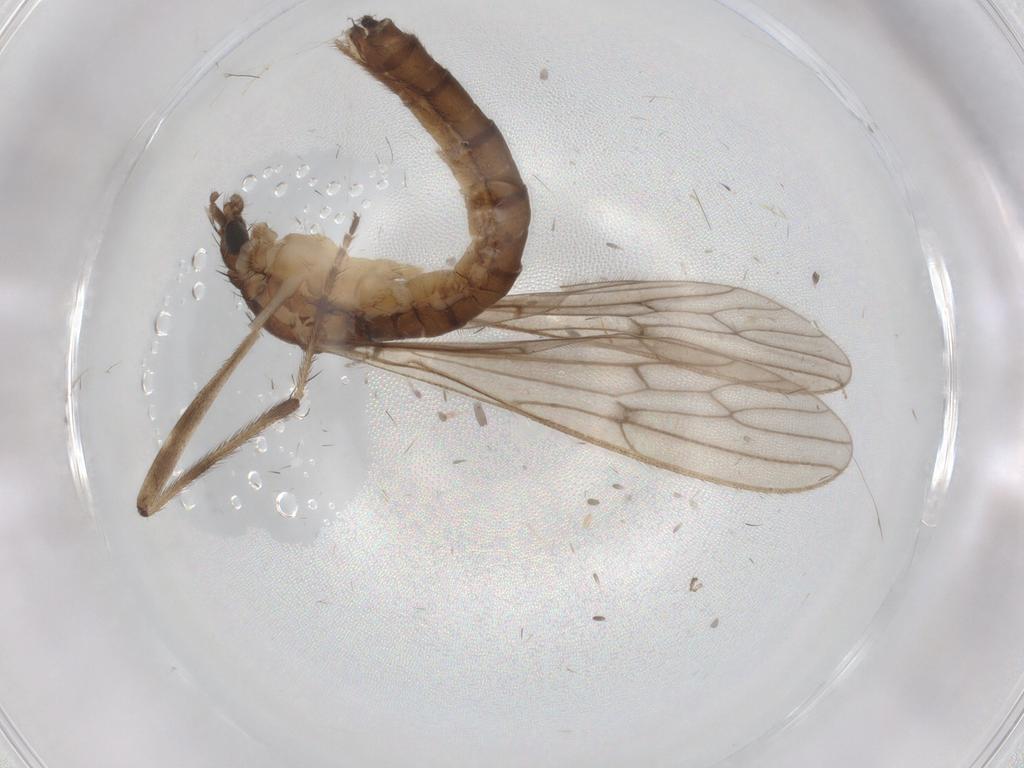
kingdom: Animalia
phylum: Arthropoda
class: Insecta
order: Diptera
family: Limoniidae
